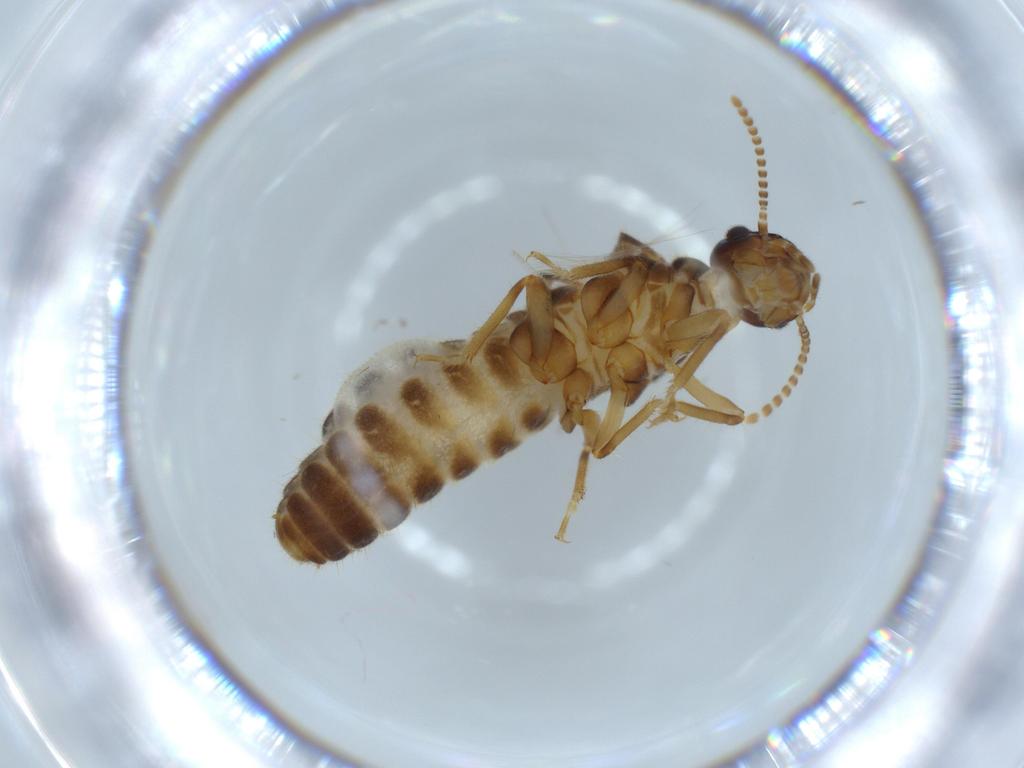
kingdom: Animalia
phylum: Arthropoda
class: Insecta
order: Blattodea
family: Termitidae
